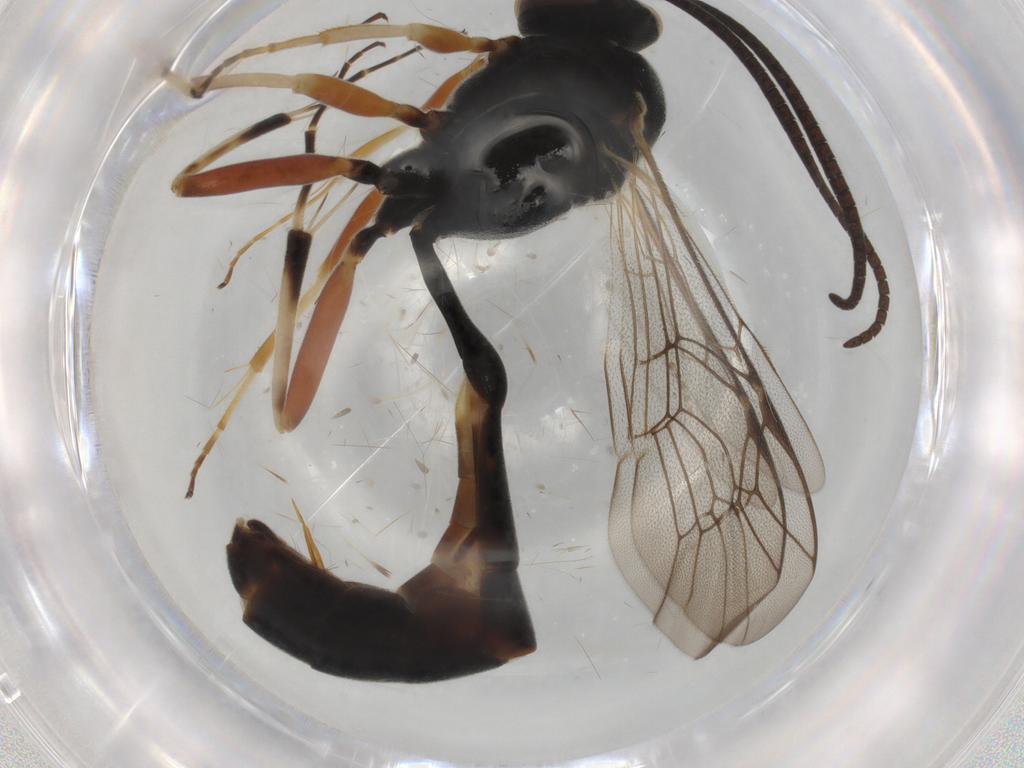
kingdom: Animalia
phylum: Arthropoda
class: Insecta
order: Hymenoptera
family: Ichneumonidae
